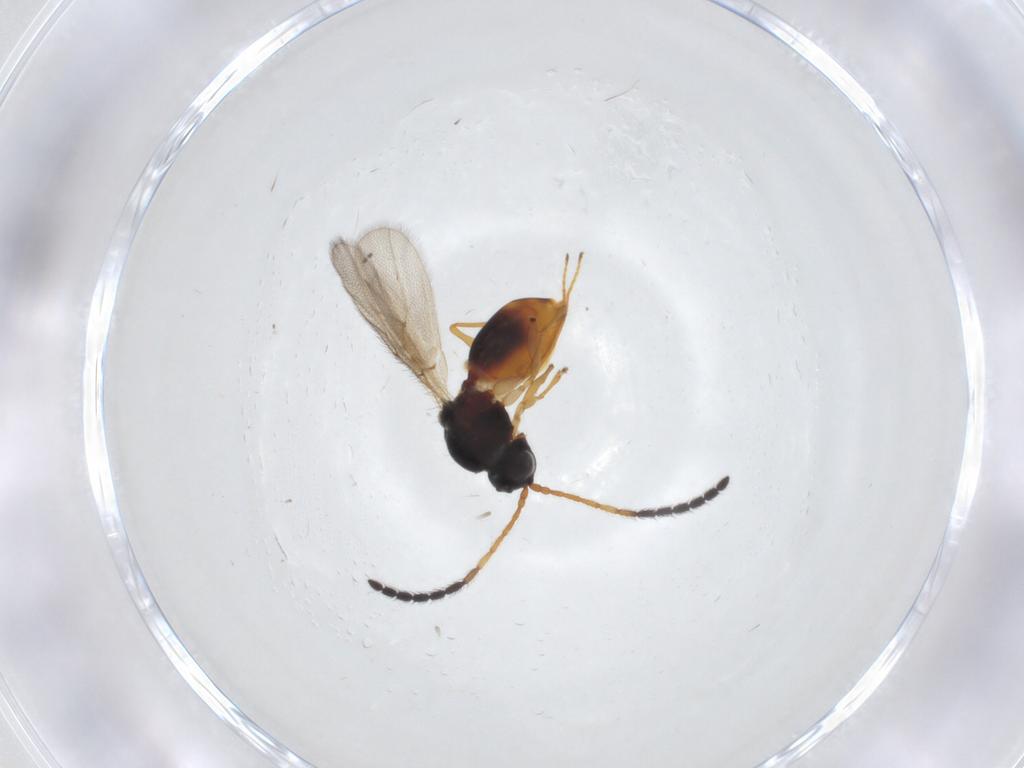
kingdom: Animalia
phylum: Arthropoda
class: Insecta
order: Hymenoptera
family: Figitidae
